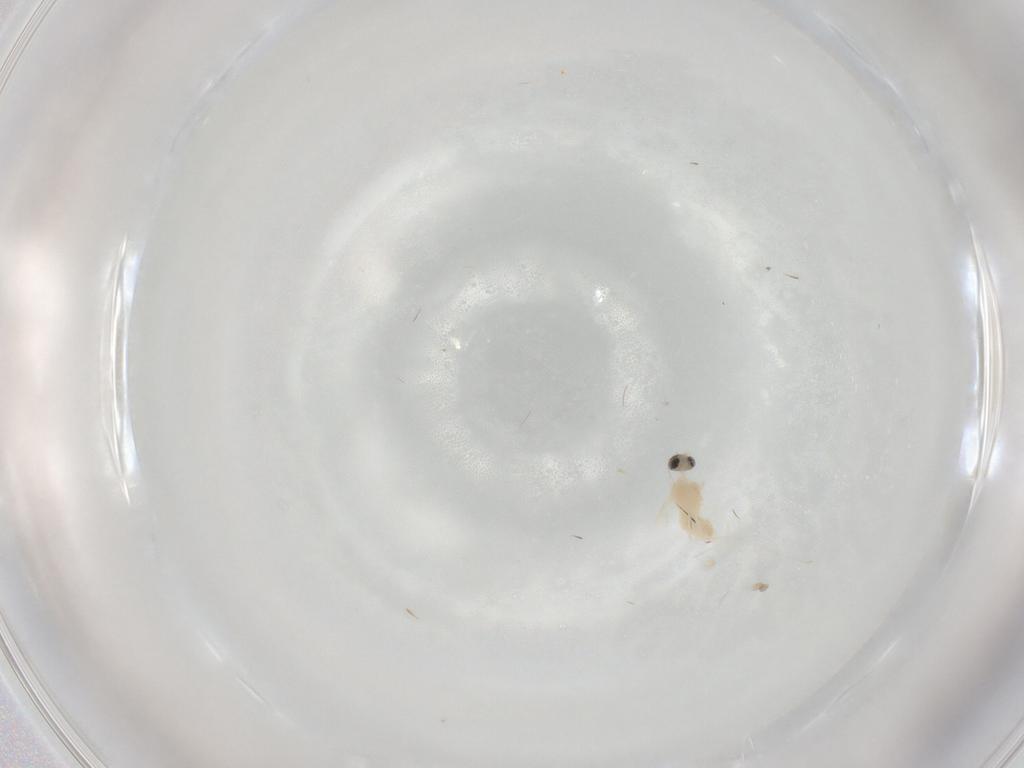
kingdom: Animalia
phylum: Arthropoda
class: Insecta
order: Diptera
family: Cecidomyiidae
